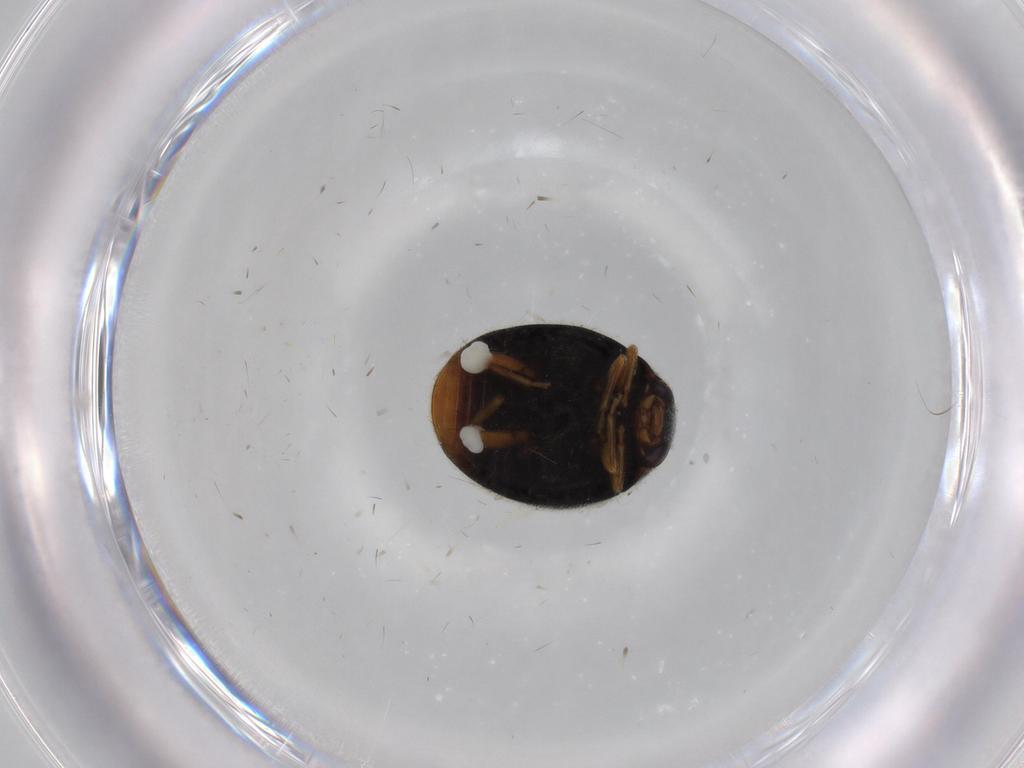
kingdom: Animalia
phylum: Arthropoda
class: Insecta
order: Coleoptera
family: Coccinellidae
